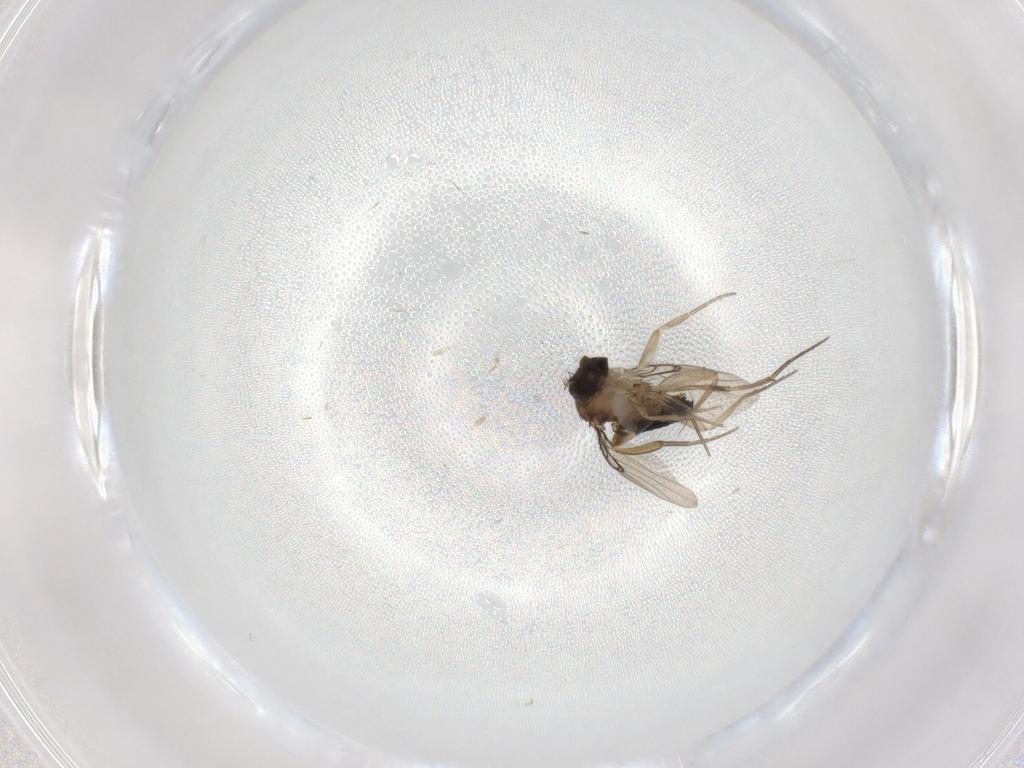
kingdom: Animalia
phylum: Arthropoda
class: Insecta
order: Diptera
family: Phoridae
